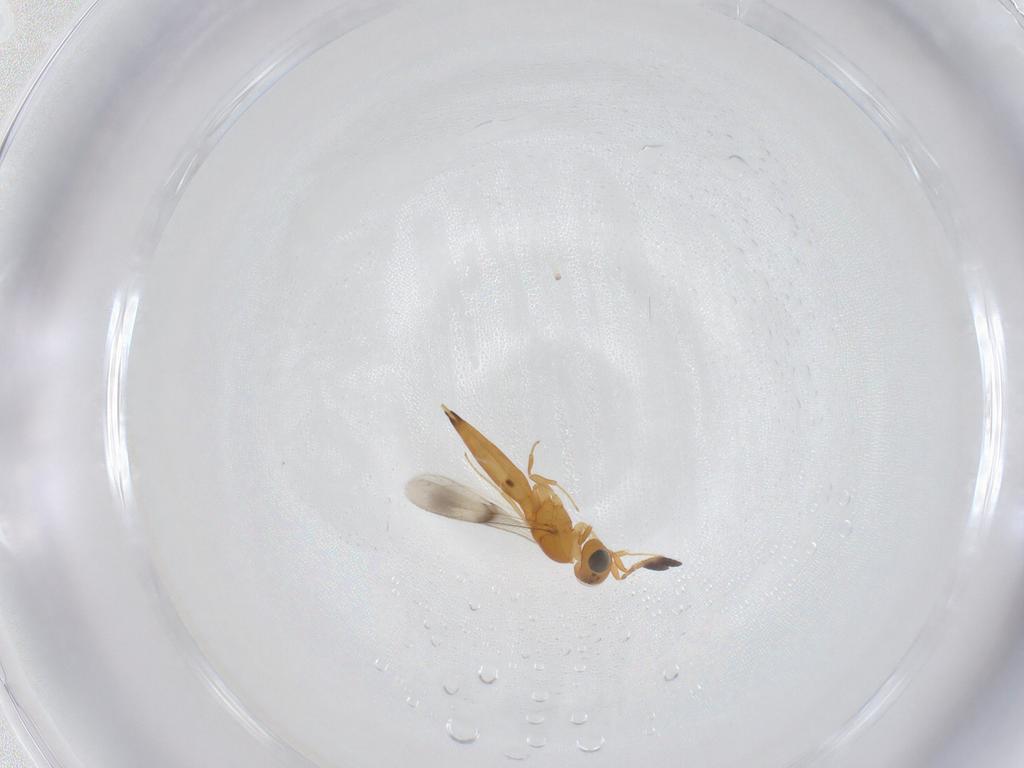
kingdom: Animalia
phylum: Arthropoda
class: Insecta
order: Hymenoptera
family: Scelionidae
